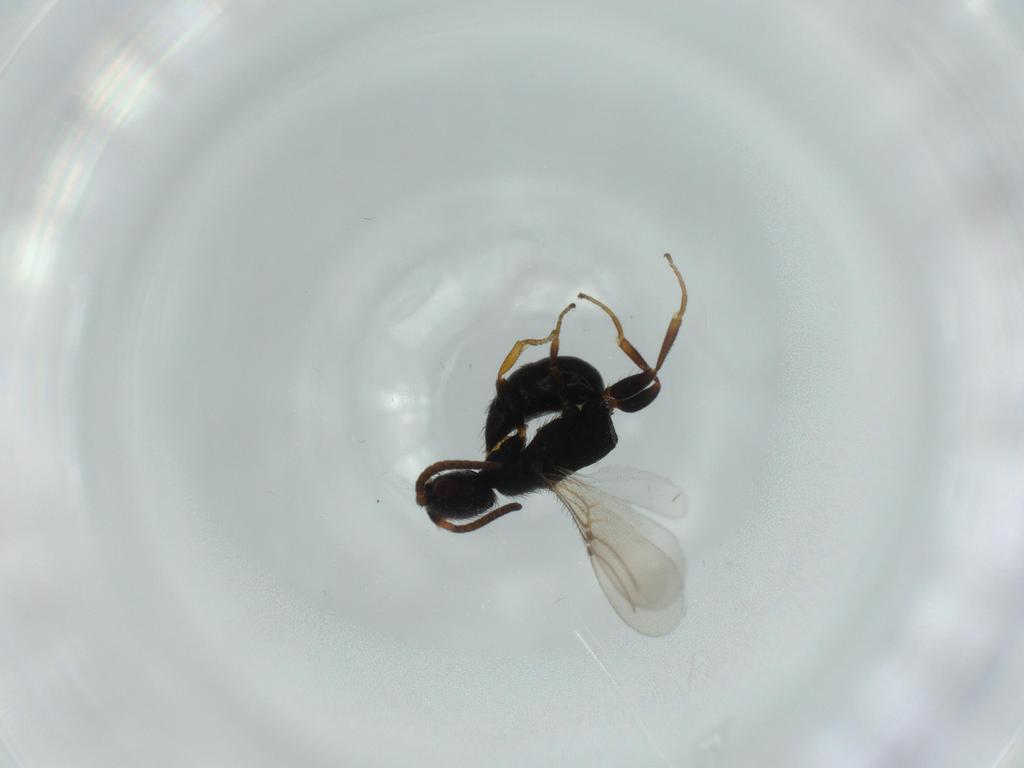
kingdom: Animalia
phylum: Arthropoda
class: Insecta
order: Hymenoptera
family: Bethylidae
